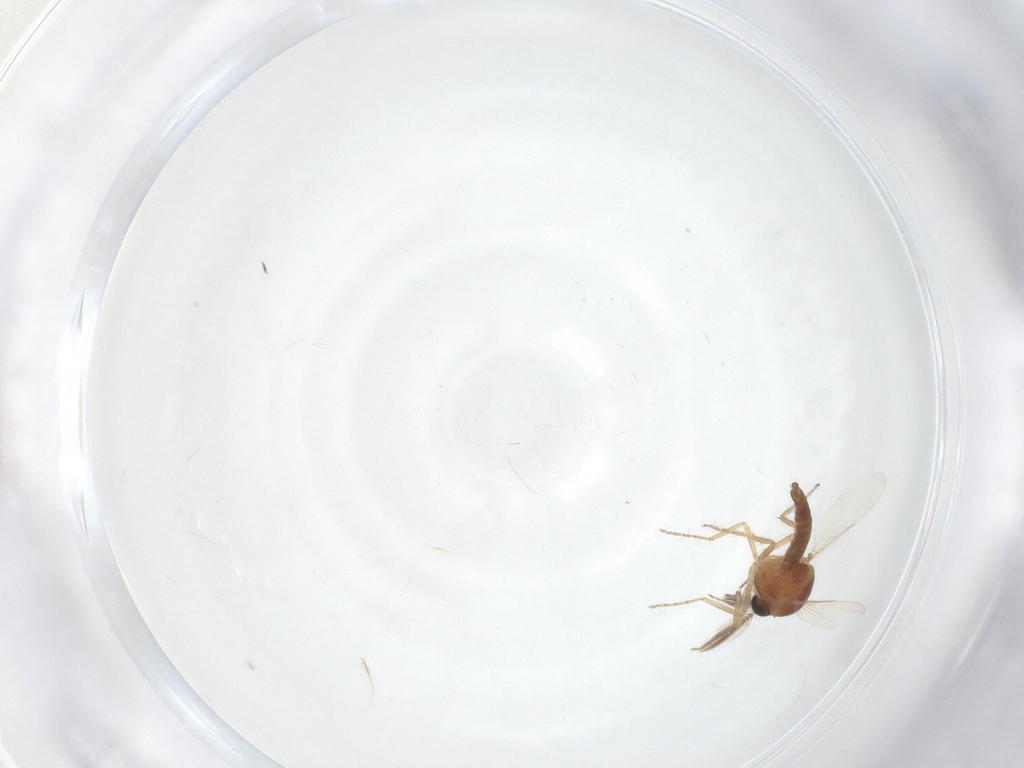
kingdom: Animalia
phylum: Arthropoda
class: Insecta
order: Diptera
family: Ceratopogonidae
